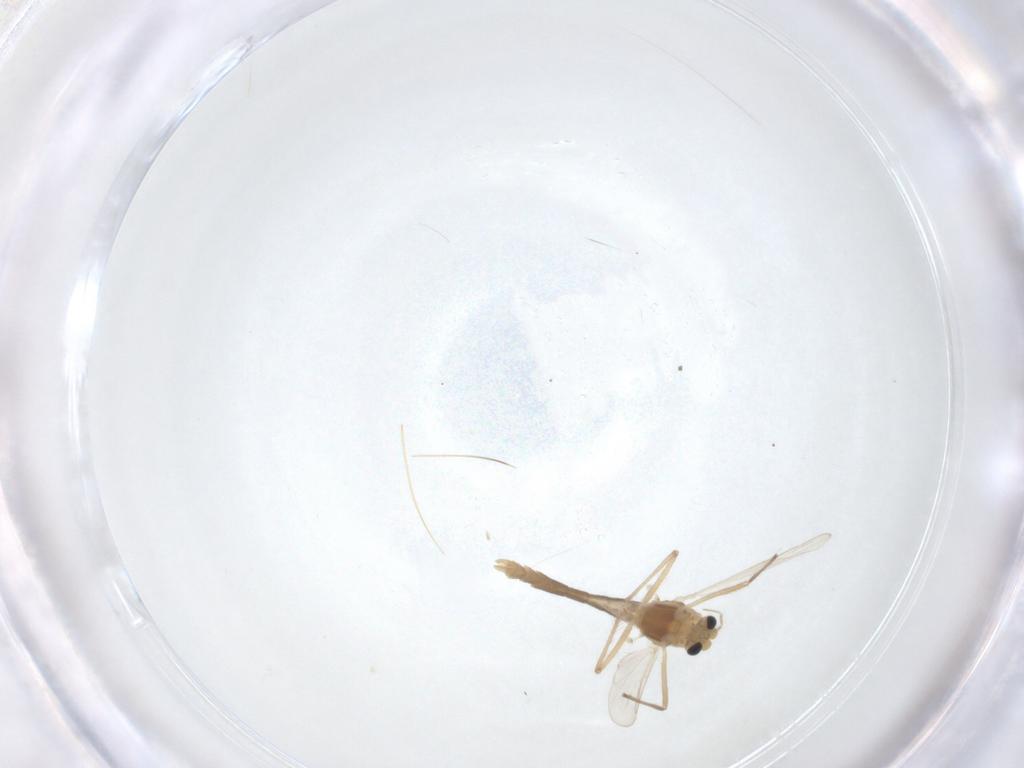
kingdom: Animalia
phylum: Arthropoda
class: Insecta
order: Diptera
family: Chironomidae
